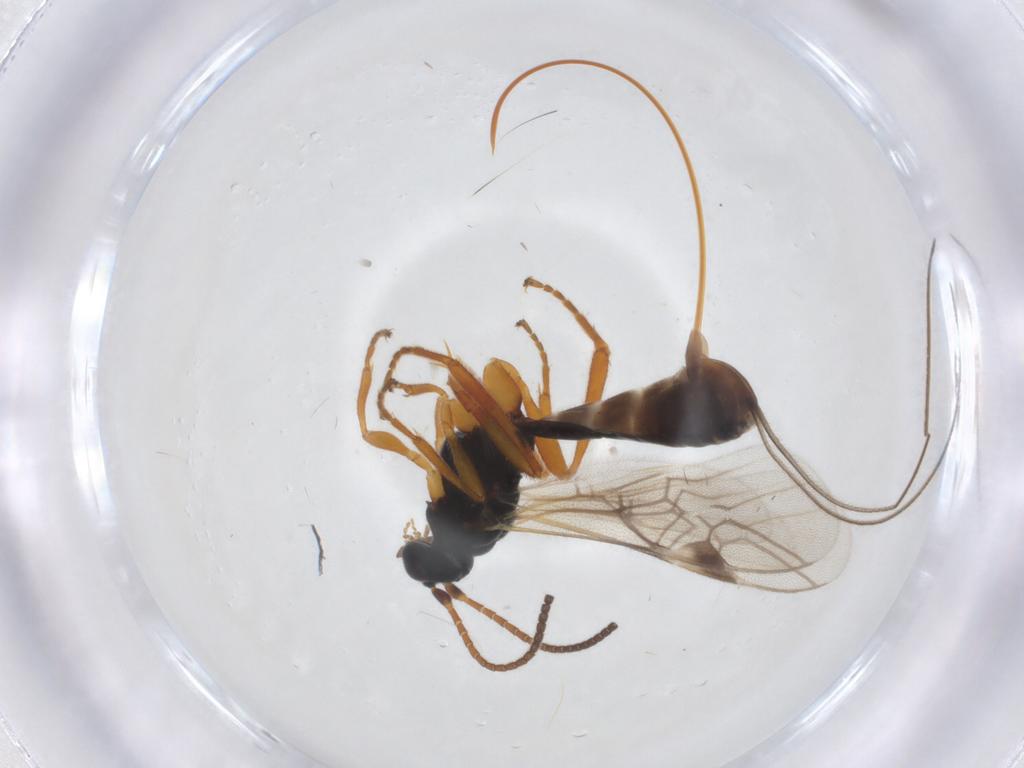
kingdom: Animalia
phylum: Arthropoda
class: Insecta
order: Hymenoptera
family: Braconidae
